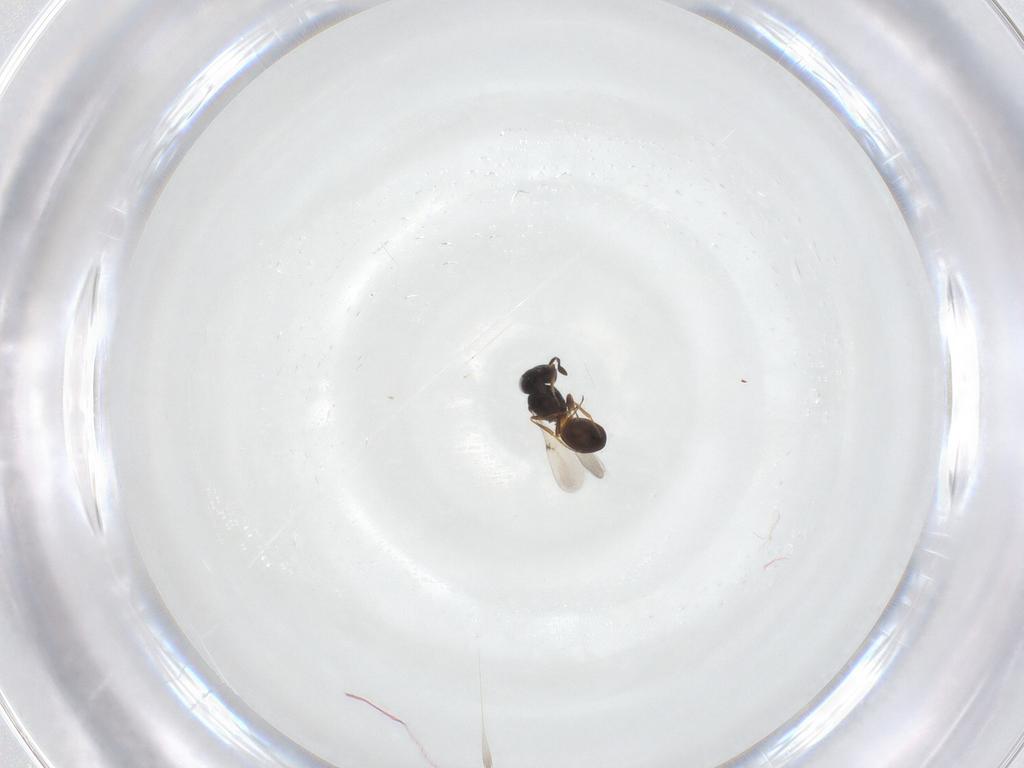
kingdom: Animalia
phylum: Arthropoda
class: Arachnida
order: Araneae
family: Pholcidae
